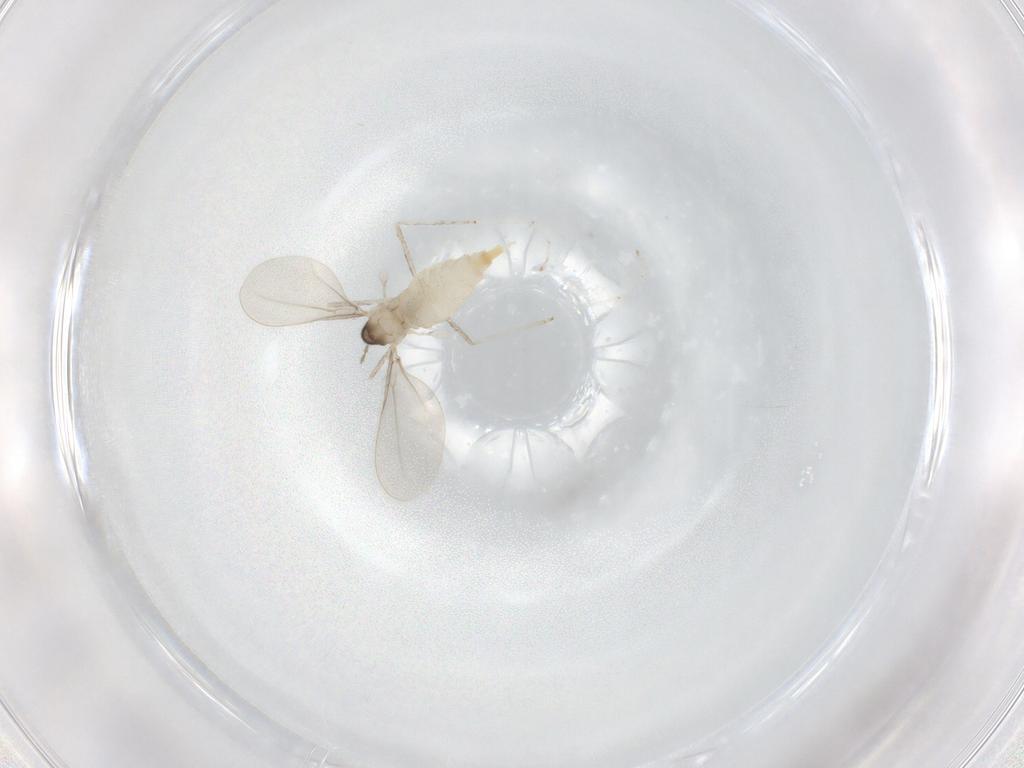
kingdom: Animalia
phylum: Arthropoda
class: Insecta
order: Diptera
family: Cecidomyiidae
